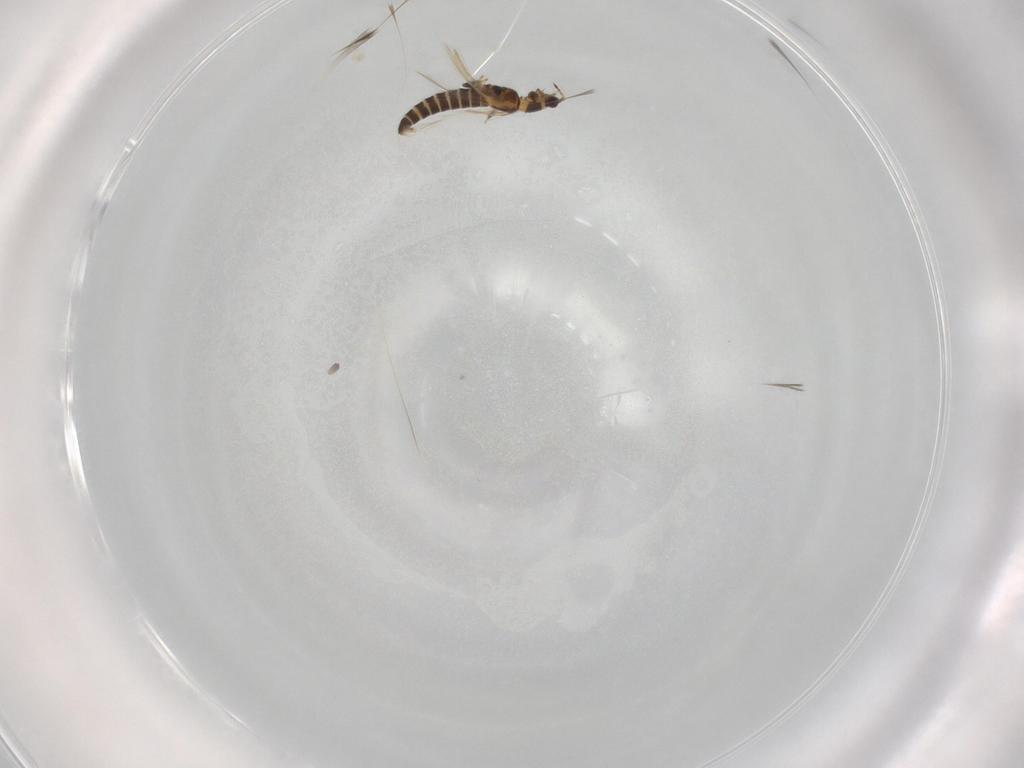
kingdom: Animalia
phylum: Arthropoda
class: Insecta
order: Thysanoptera
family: Thripidae
